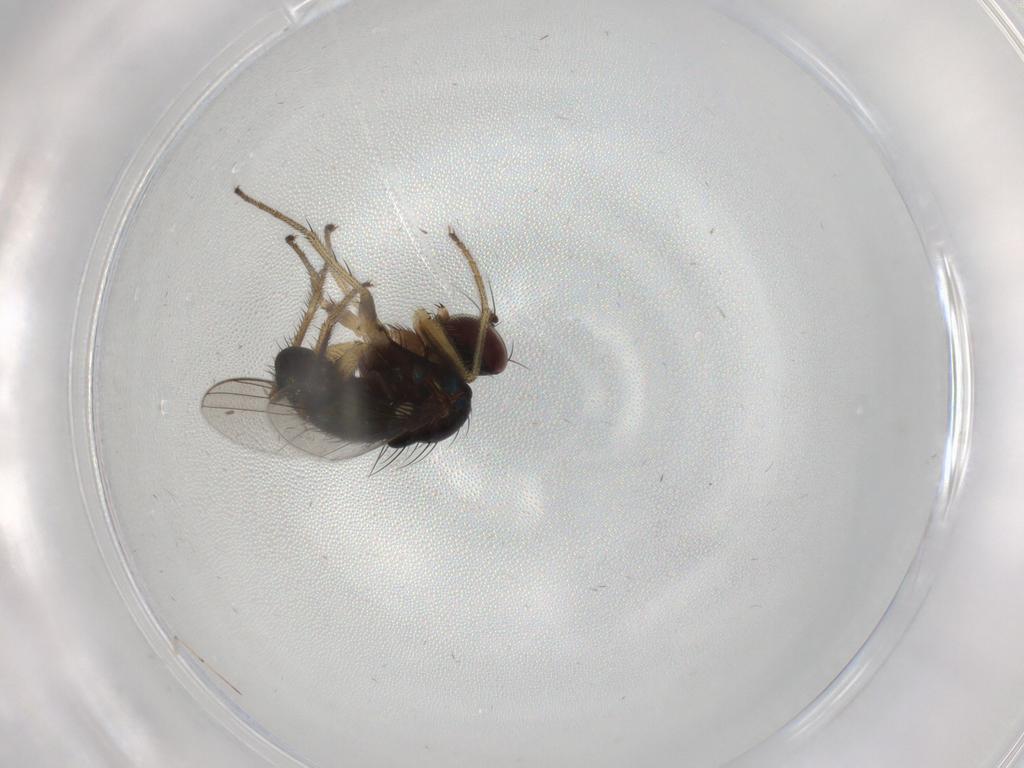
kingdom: Animalia
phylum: Arthropoda
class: Insecta
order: Diptera
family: Dolichopodidae
